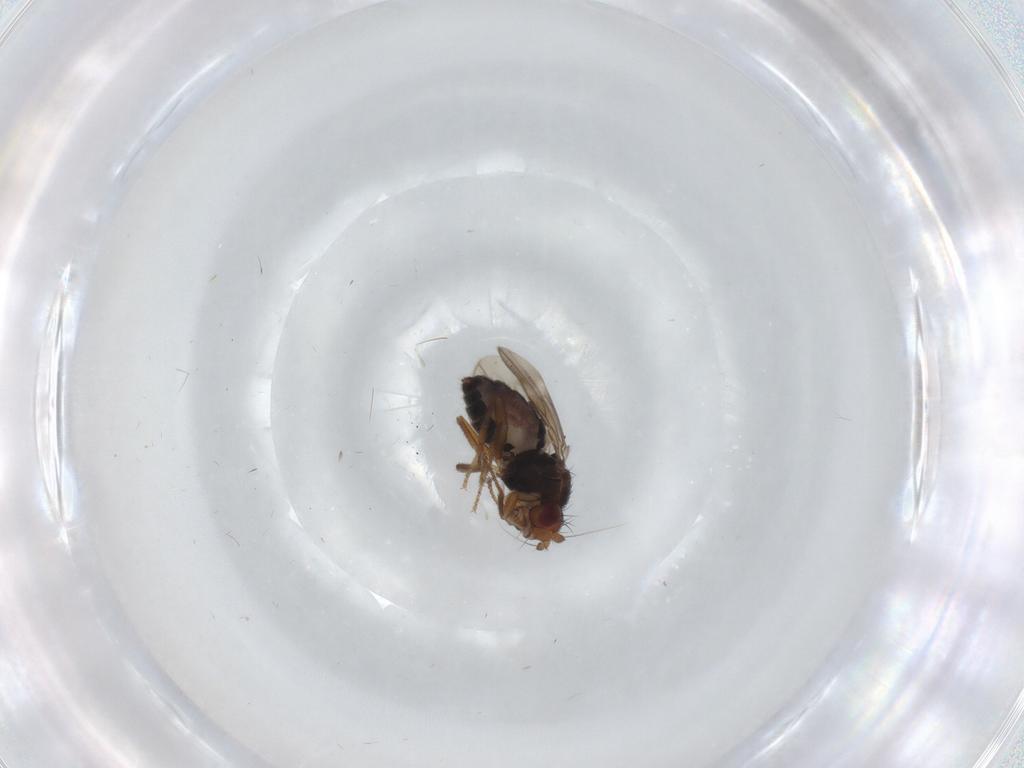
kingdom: Animalia
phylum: Arthropoda
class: Insecta
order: Diptera
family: Sphaeroceridae
